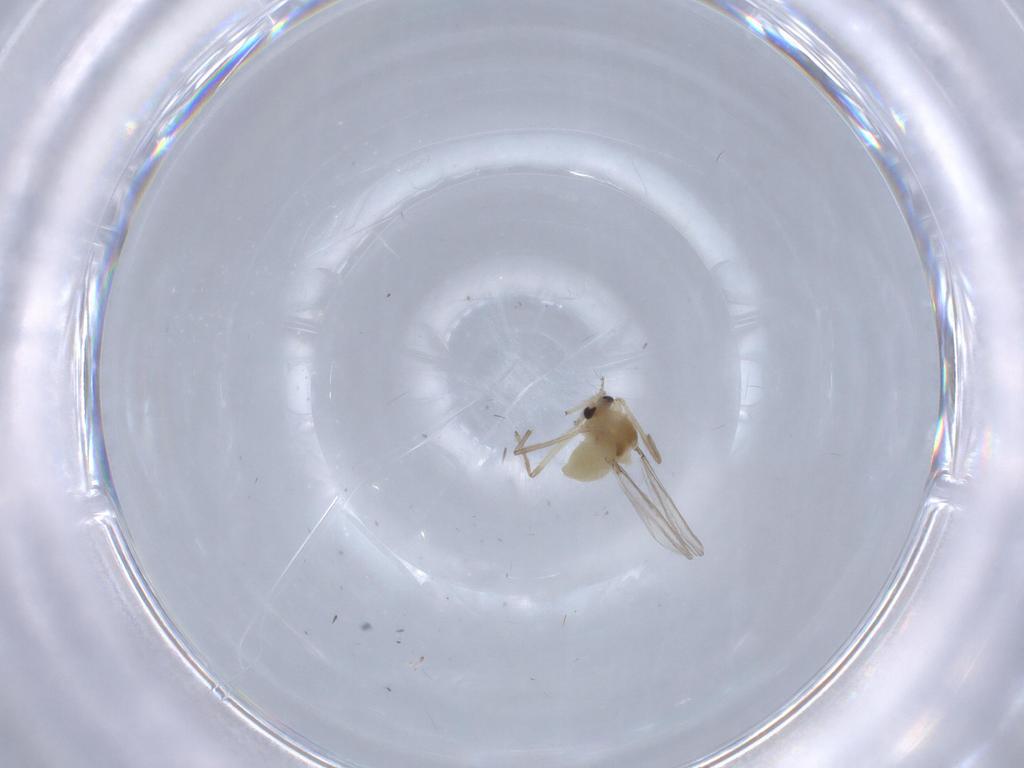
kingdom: Animalia
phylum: Arthropoda
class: Insecta
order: Diptera
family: Chironomidae
